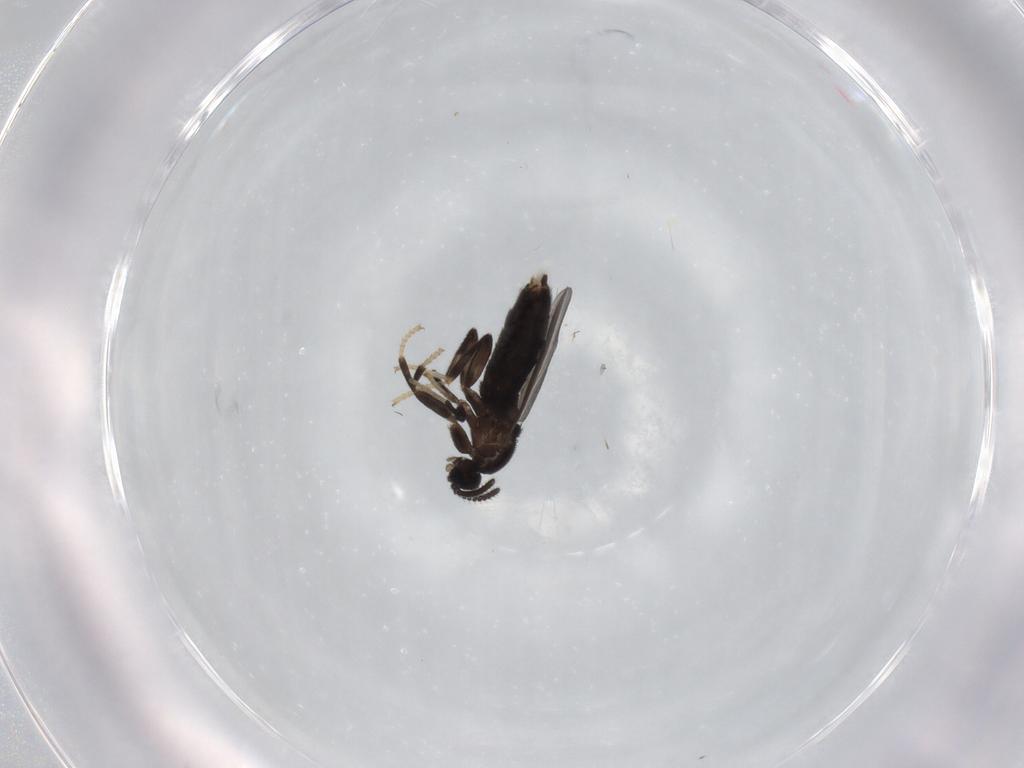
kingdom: Animalia
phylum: Arthropoda
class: Insecta
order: Diptera
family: Scatopsidae
